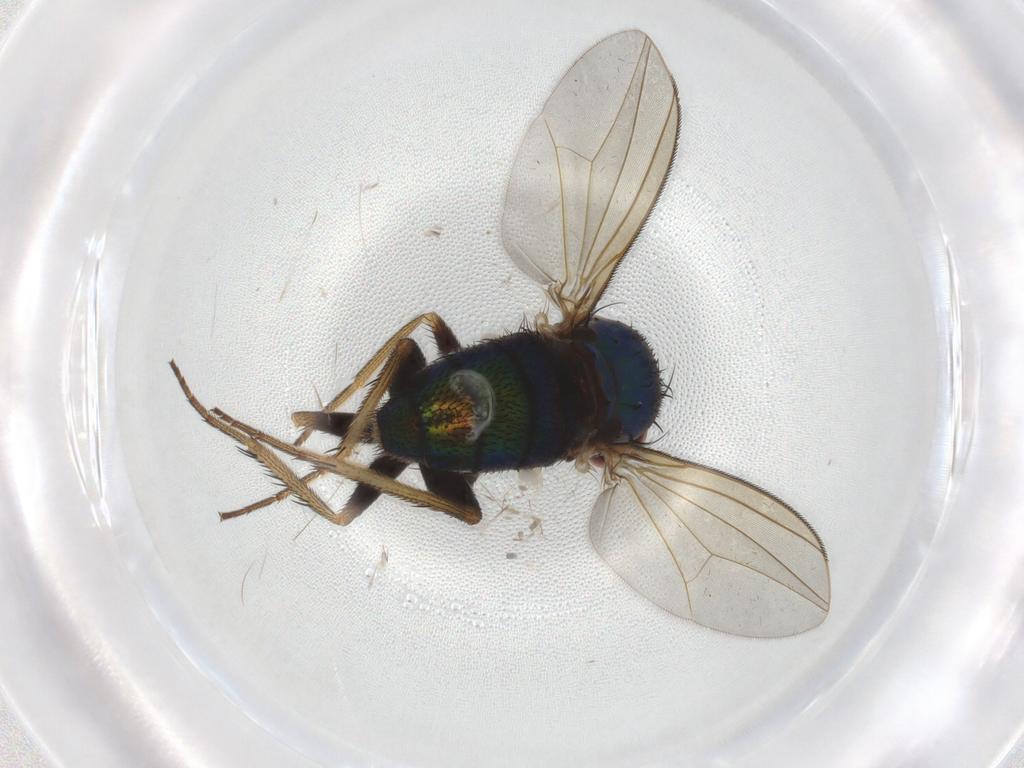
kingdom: Animalia
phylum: Arthropoda
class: Insecta
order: Diptera
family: Dolichopodidae
